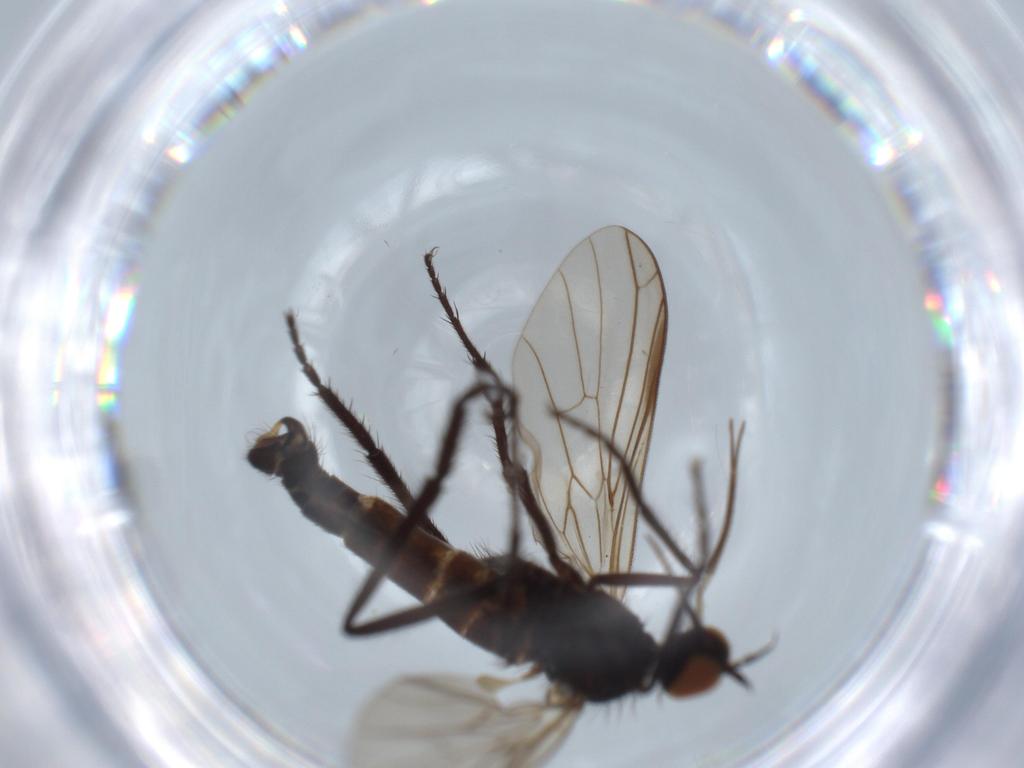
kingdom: Animalia
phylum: Arthropoda
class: Insecta
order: Diptera
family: Empididae
